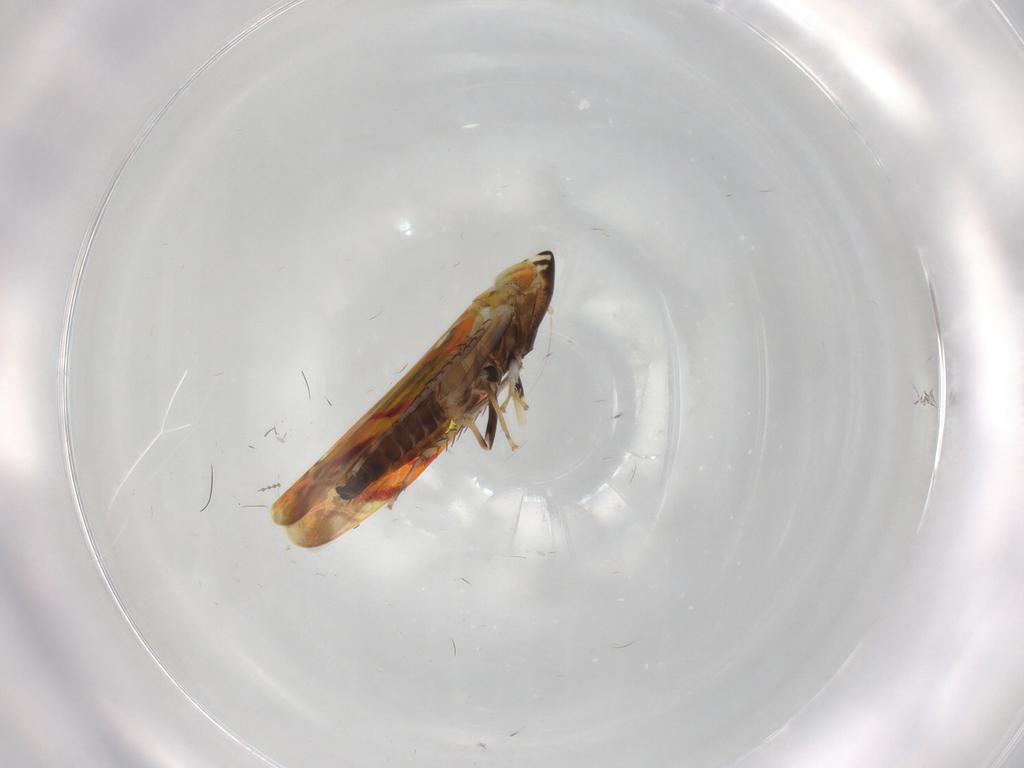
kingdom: Animalia
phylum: Arthropoda
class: Insecta
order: Hemiptera
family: Cicadellidae
